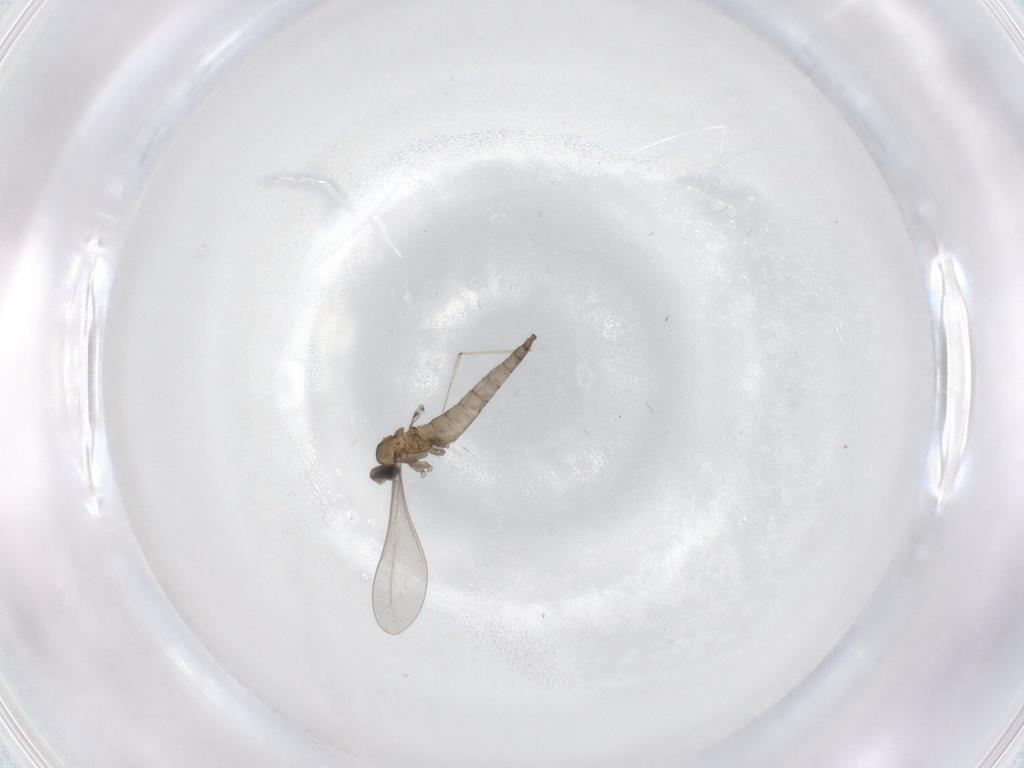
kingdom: Animalia
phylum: Arthropoda
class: Insecta
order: Diptera
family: Cecidomyiidae
